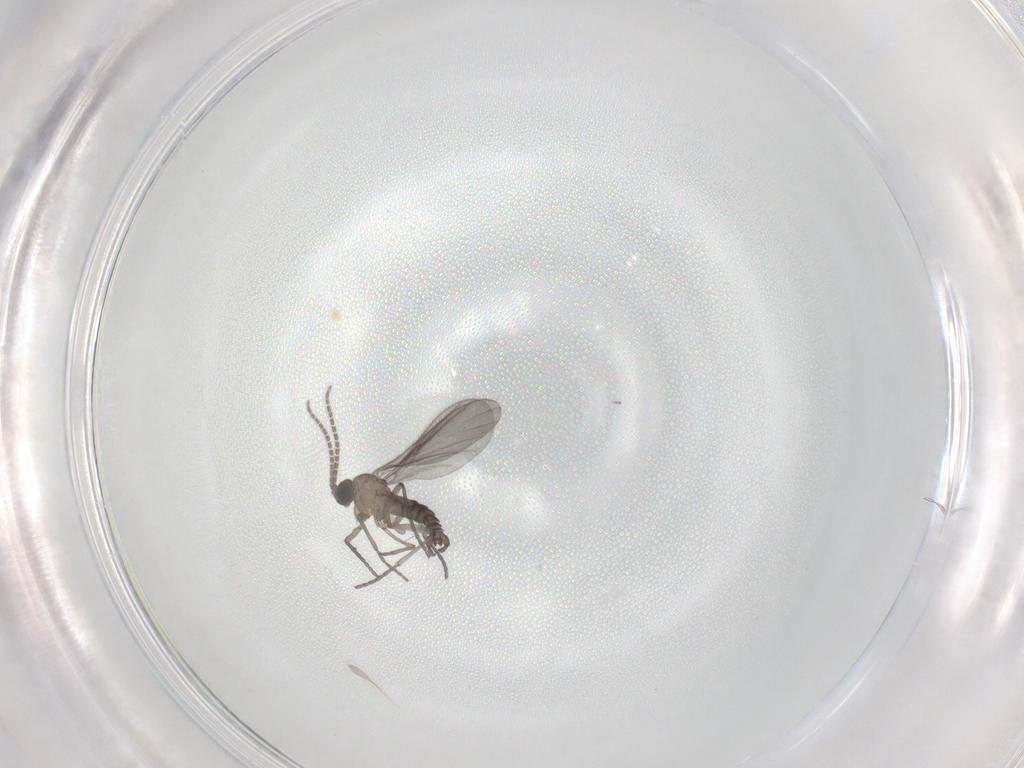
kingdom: Animalia
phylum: Arthropoda
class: Insecta
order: Diptera
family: Sciaridae
